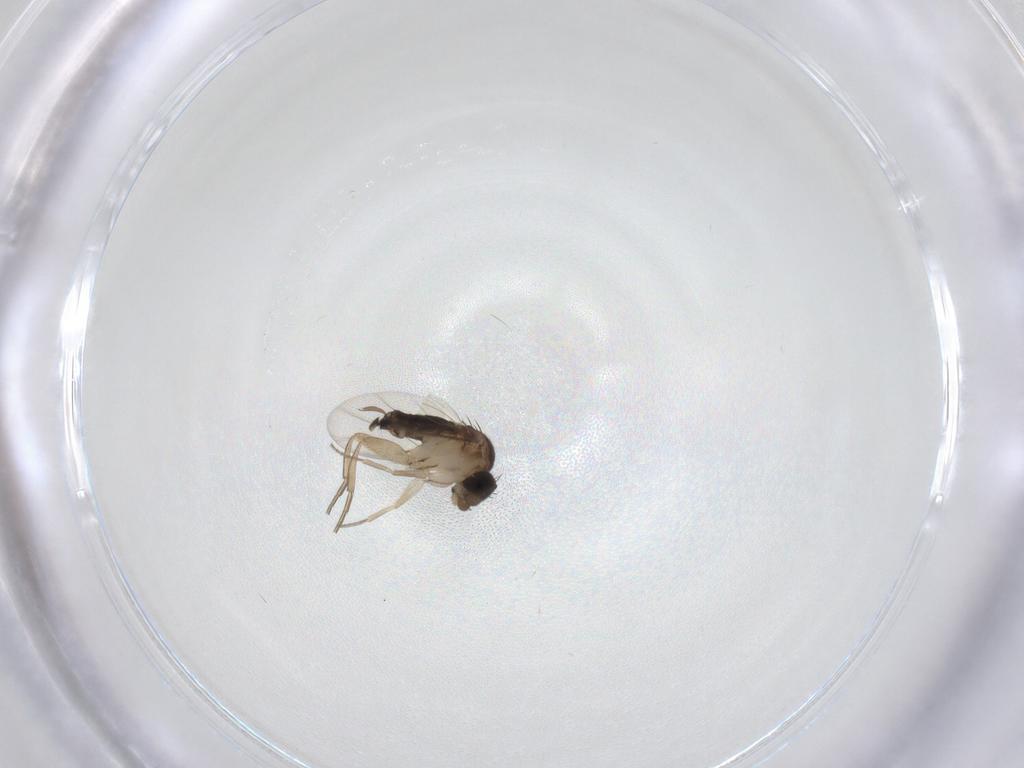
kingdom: Animalia
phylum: Arthropoda
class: Insecta
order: Diptera
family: Phoridae
